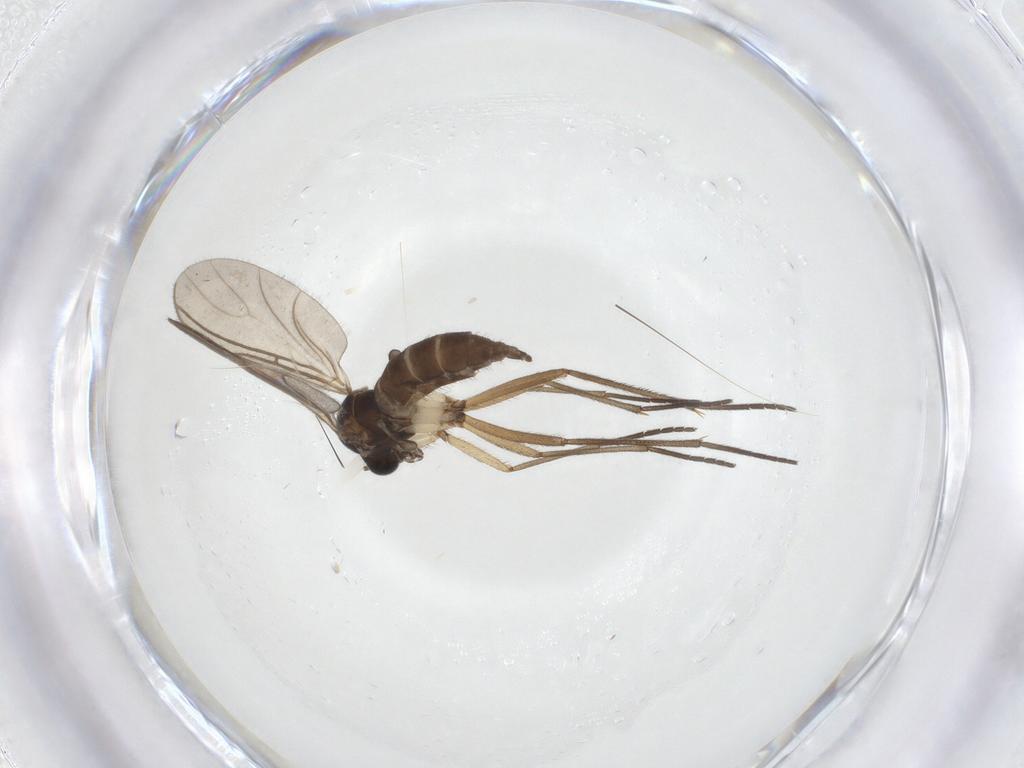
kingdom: Animalia
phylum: Arthropoda
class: Insecta
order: Diptera
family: Sciaridae
